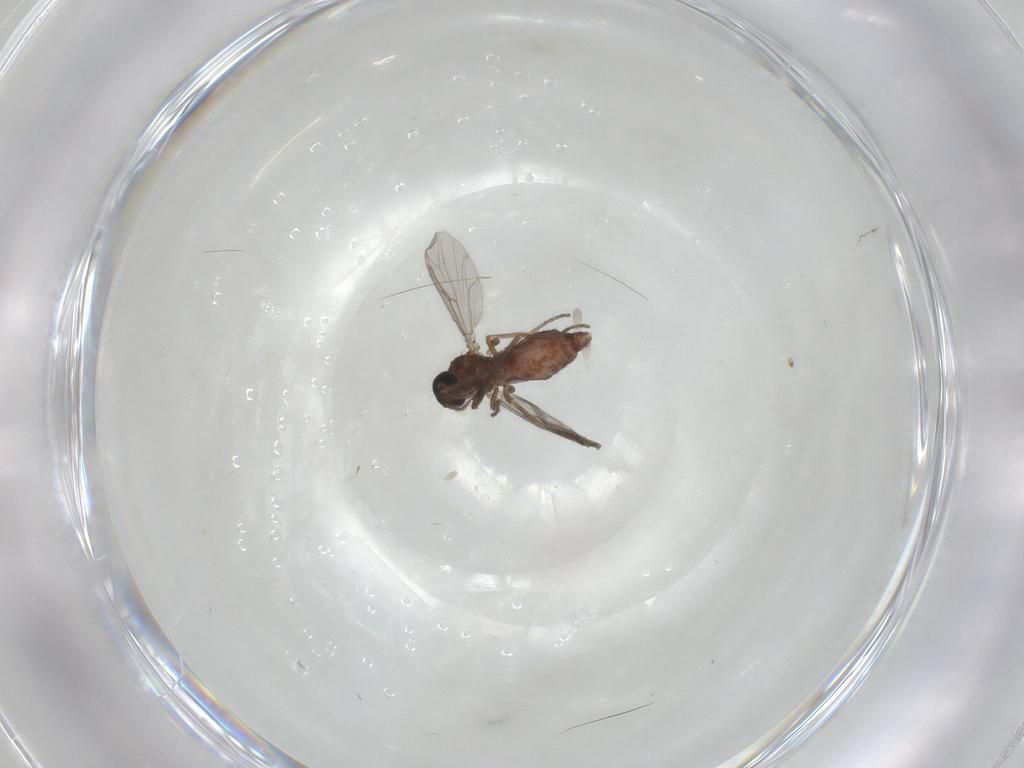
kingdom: Animalia
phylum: Arthropoda
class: Insecta
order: Diptera
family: Ceratopogonidae
